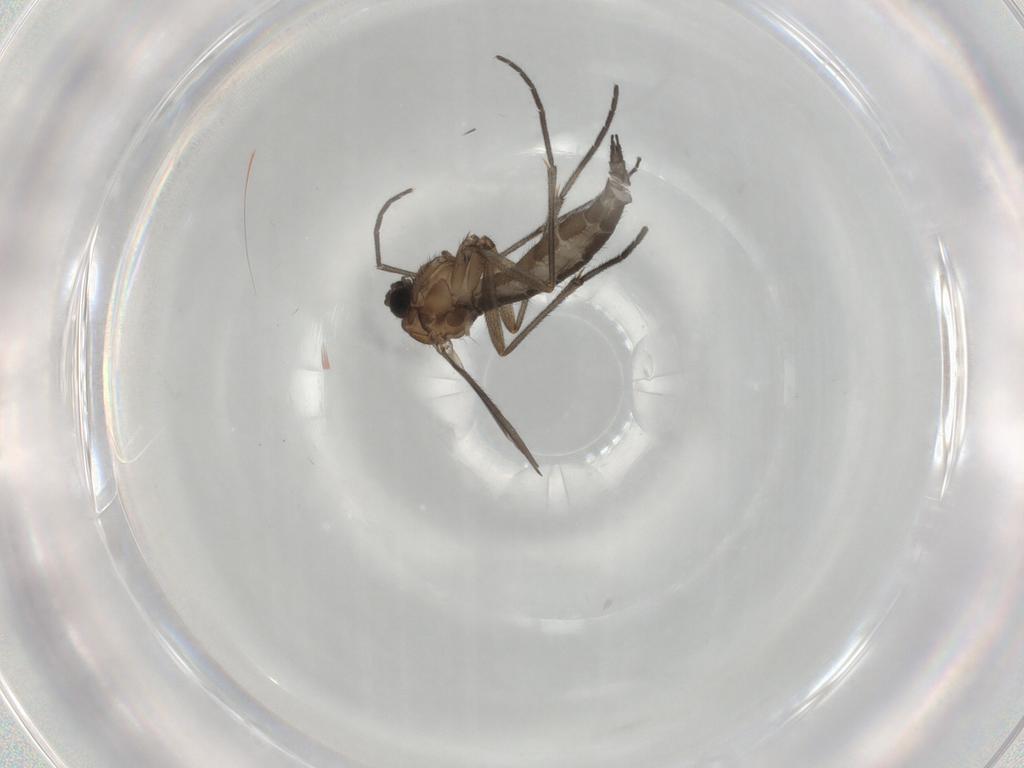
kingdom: Animalia
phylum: Arthropoda
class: Insecta
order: Diptera
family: Sciaridae
